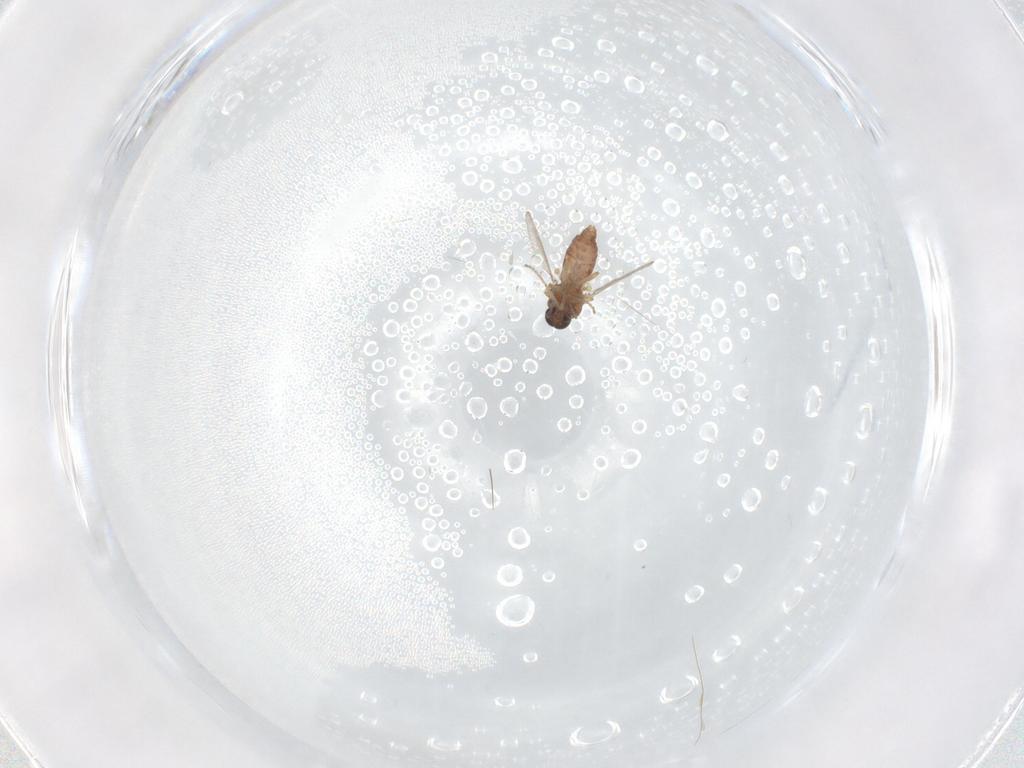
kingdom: Animalia
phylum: Arthropoda
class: Insecta
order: Diptera
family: Ceratopogonidae
